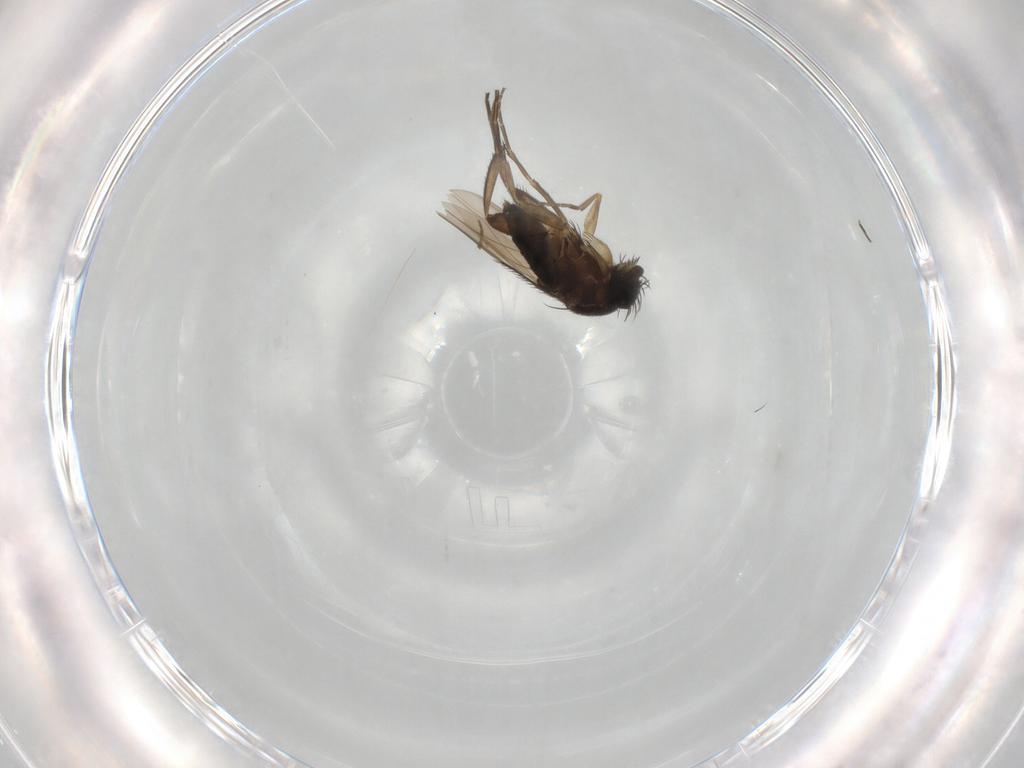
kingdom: Animalia
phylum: Arthropoda
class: Insecta
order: Diptera
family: Phoridae
